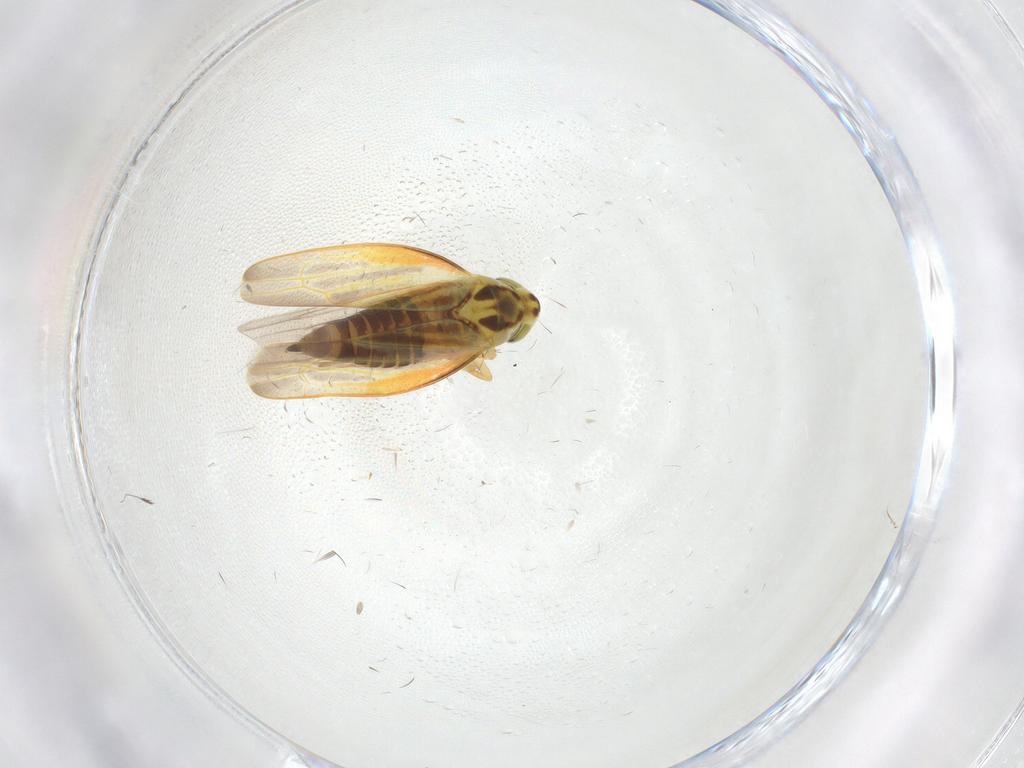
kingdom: Animalia
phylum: Arthropoda
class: Insecta
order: Hemiptera
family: Cicadellidae
